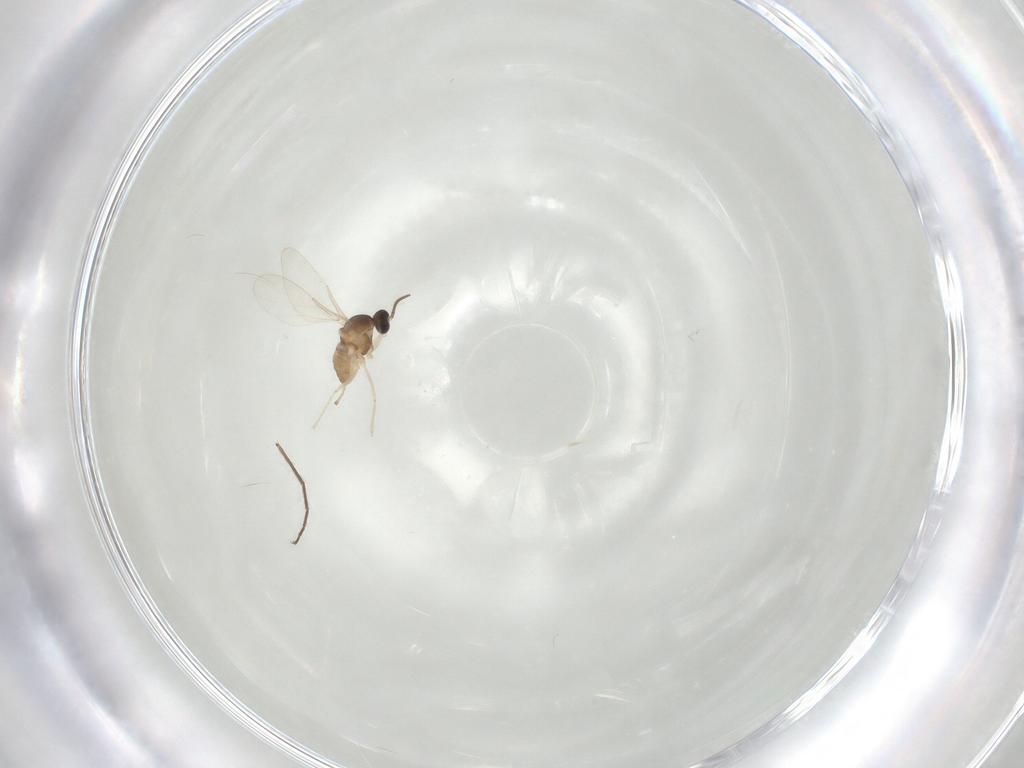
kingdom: Animalia
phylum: Arthropoda
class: Insecta
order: Diptera
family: Cecidomyiidae
